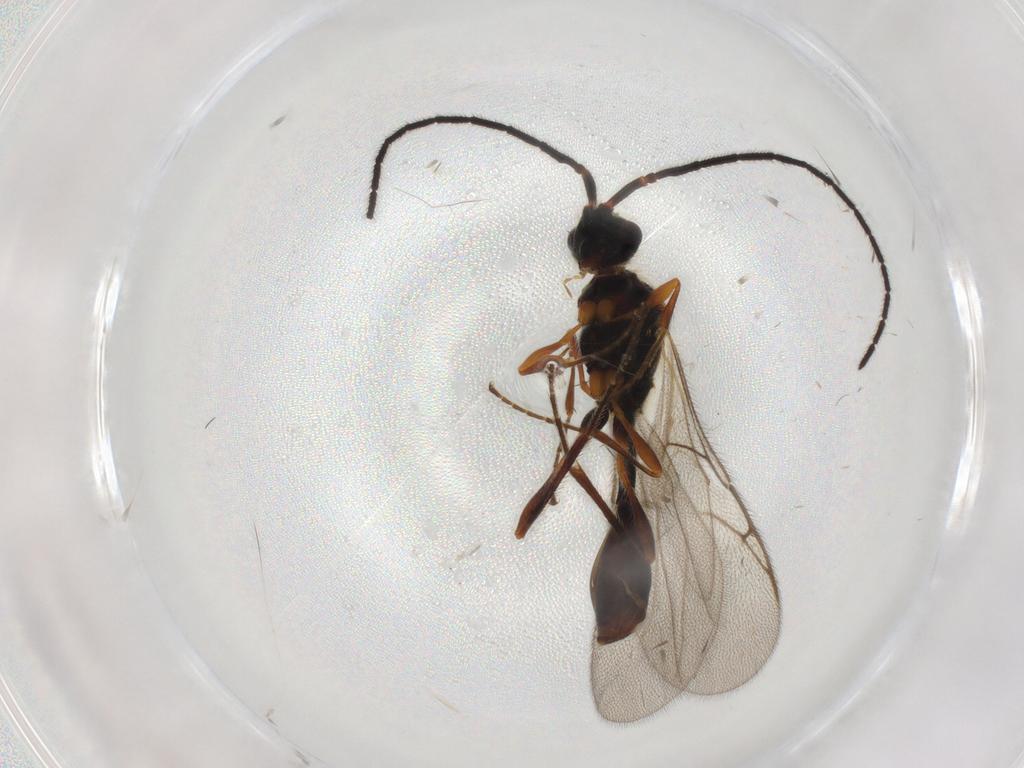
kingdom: Animalia
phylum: Arthropoda
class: Insecta
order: Hymenoptera
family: Diapriidae
